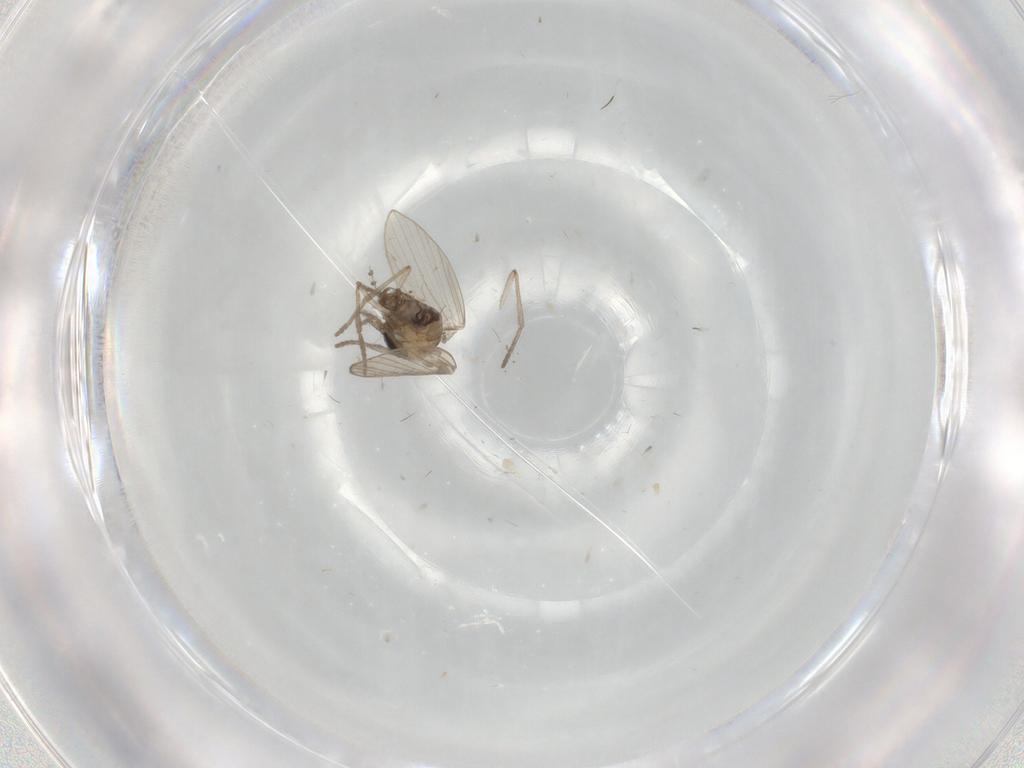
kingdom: Animalia
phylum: Arthropoda
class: Insecta
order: Diptera
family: Psychodidae
